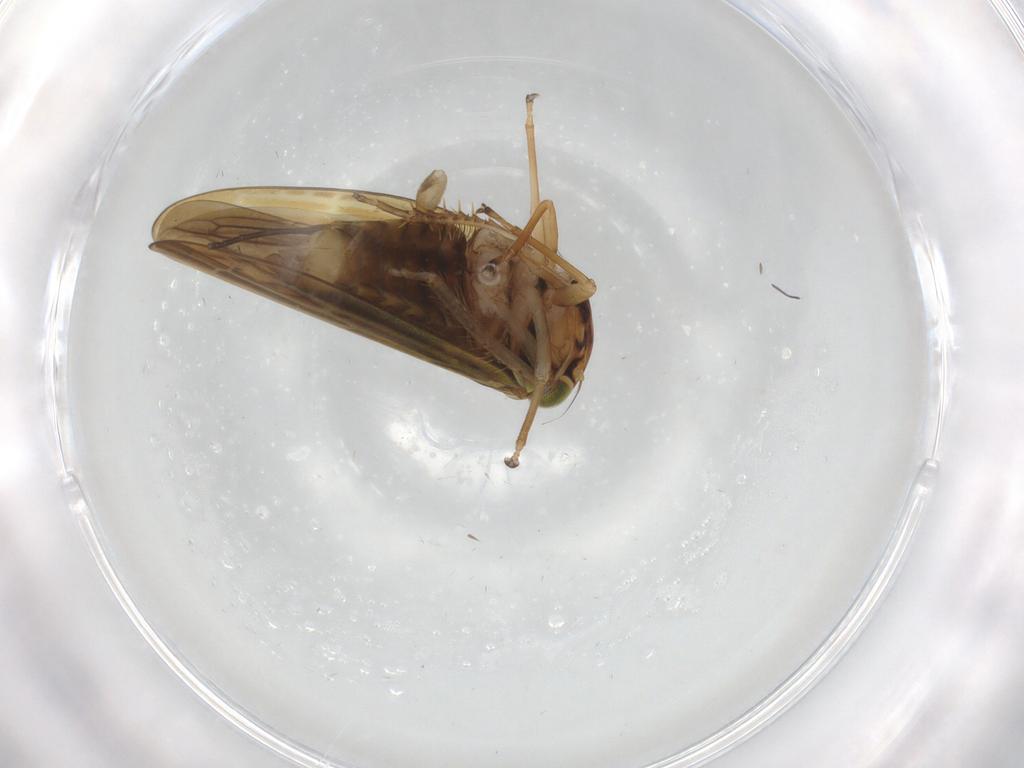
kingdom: Animalia
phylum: Arthropoda
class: Insecta
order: Hemiptera
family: Cicadellidae
